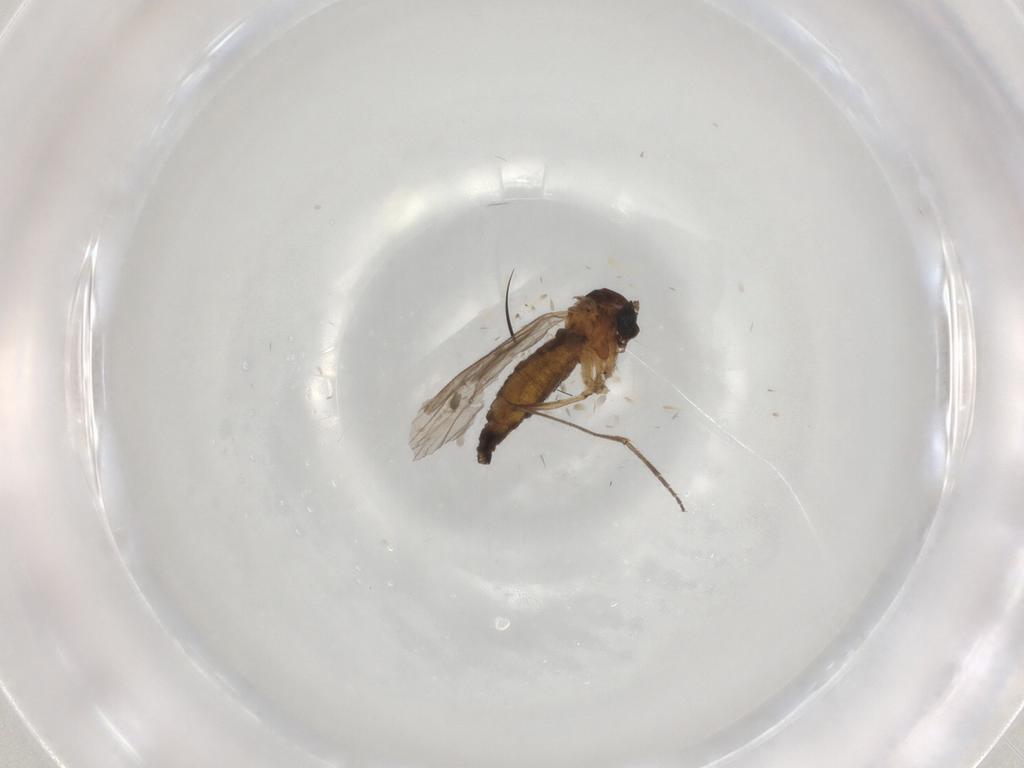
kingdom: Animalia
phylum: Arthropoda
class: Insecta
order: Diptera
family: Sciaridae
